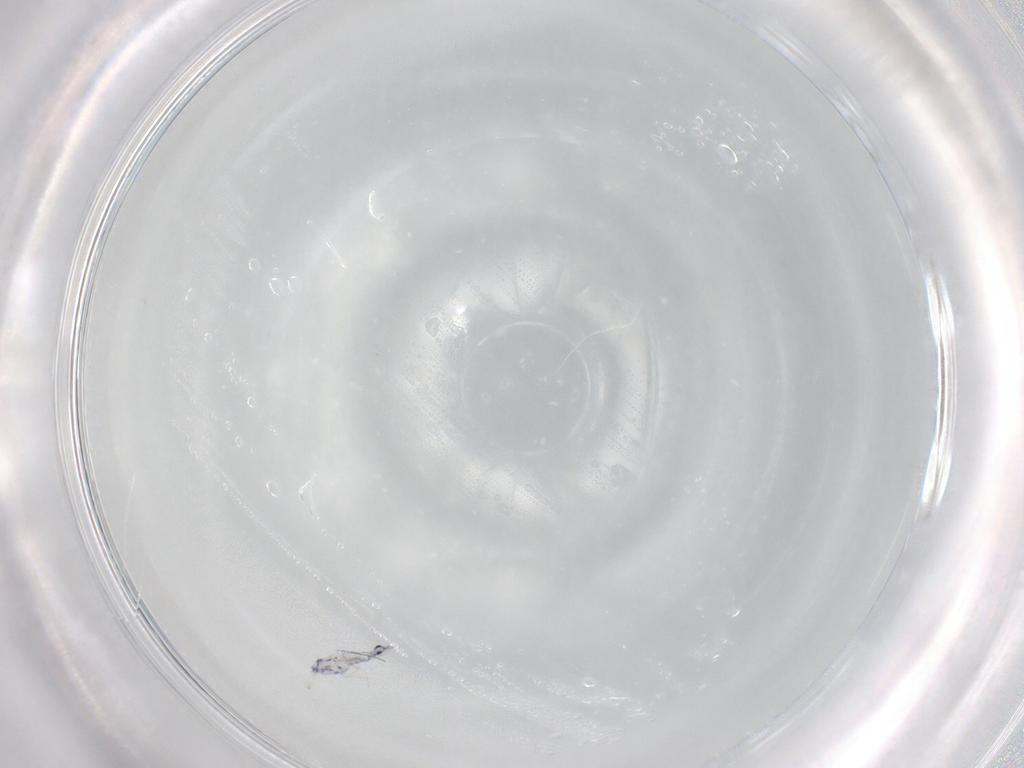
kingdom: Animalia
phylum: Arthropoda
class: Collembola
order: Entomobryomorpha
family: Entomobryidae
